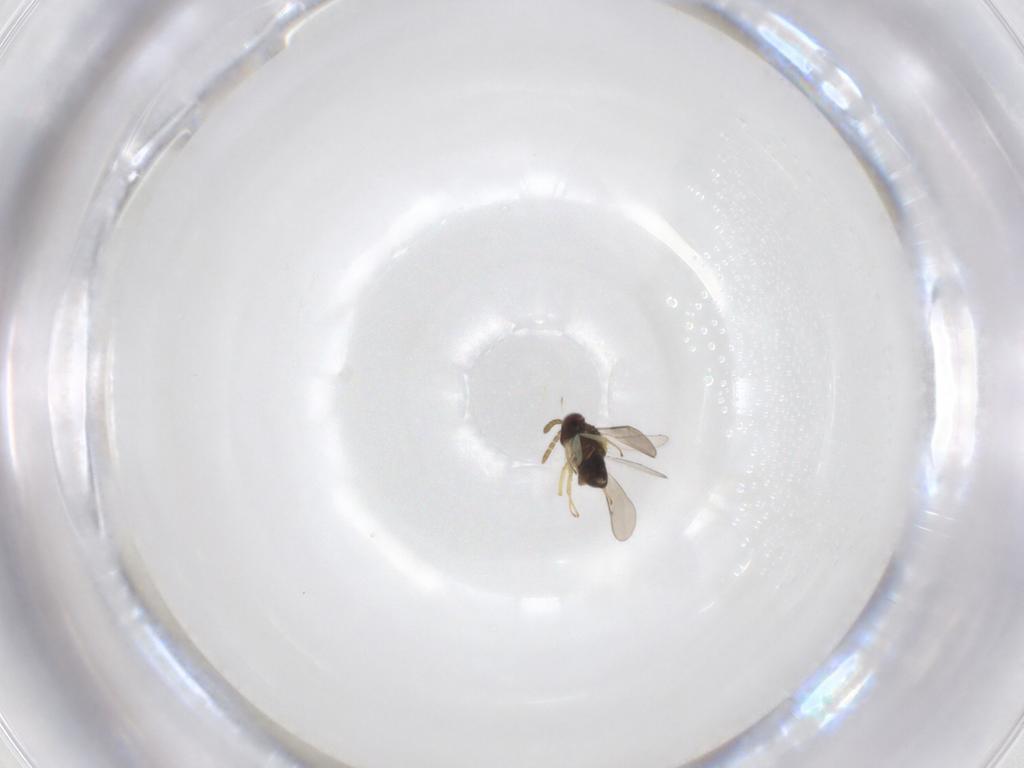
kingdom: Animalia
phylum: Arthropoda
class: Insecta
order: Hymenoptera
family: Aphelinidae
